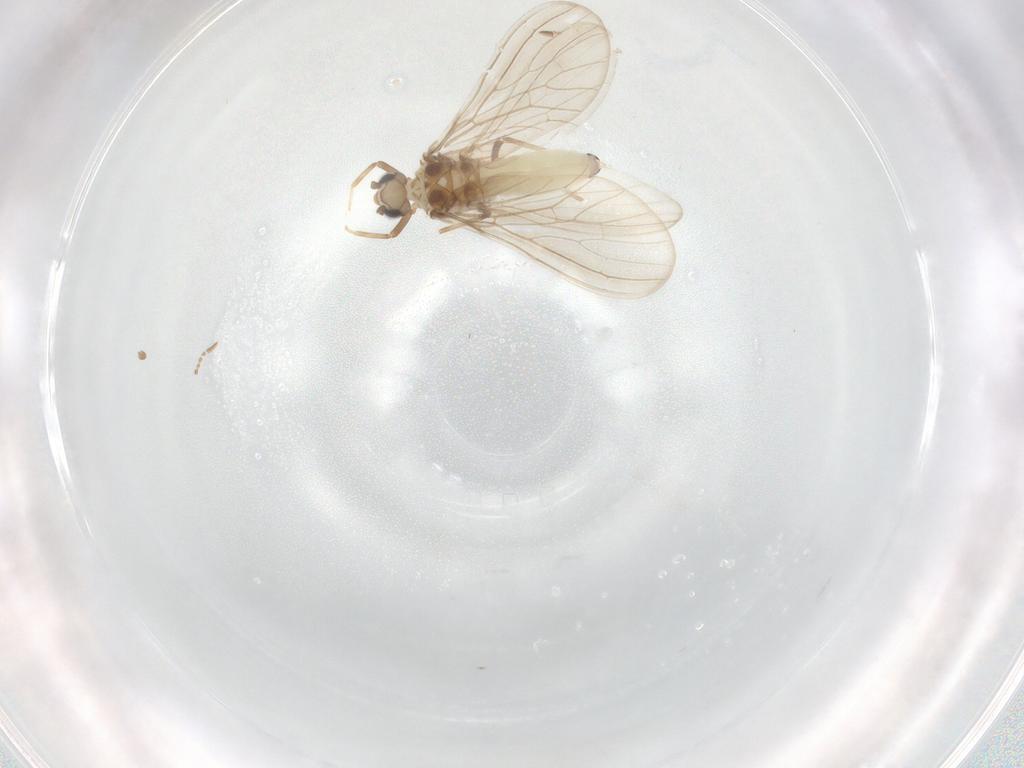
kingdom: Animalia
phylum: Arthropoda
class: Insecta
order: Neuroptera
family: Coniopterygidae
